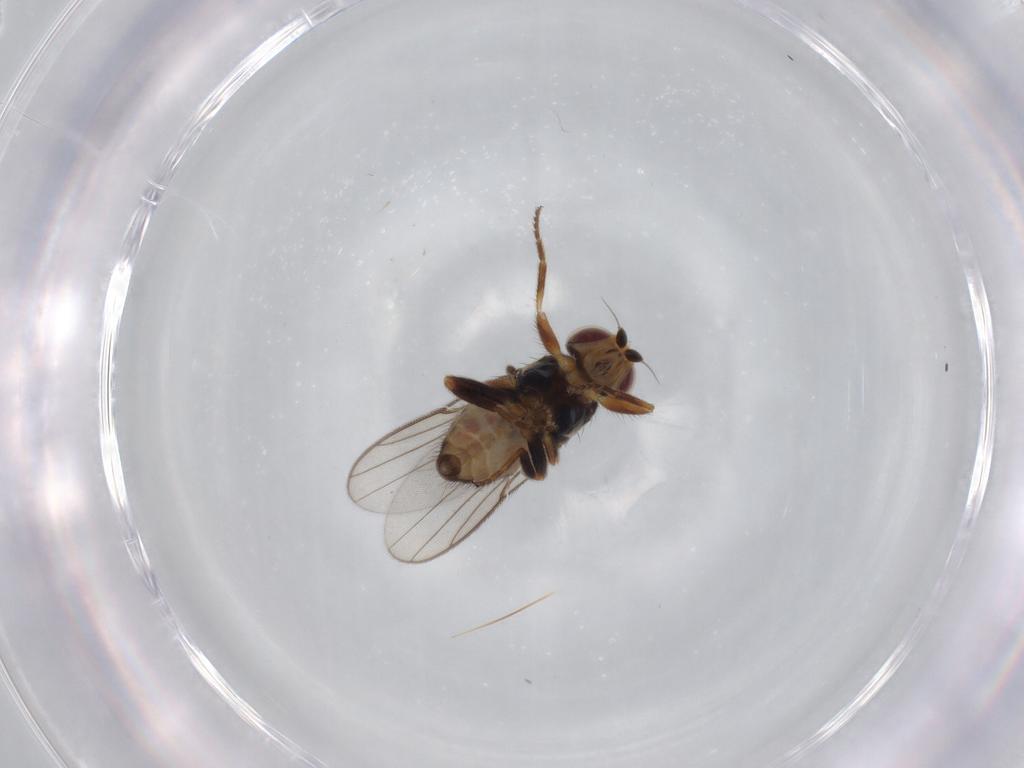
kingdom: Animalia
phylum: Arthropoda
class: Insecta
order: Diptera
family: Chloropidae
